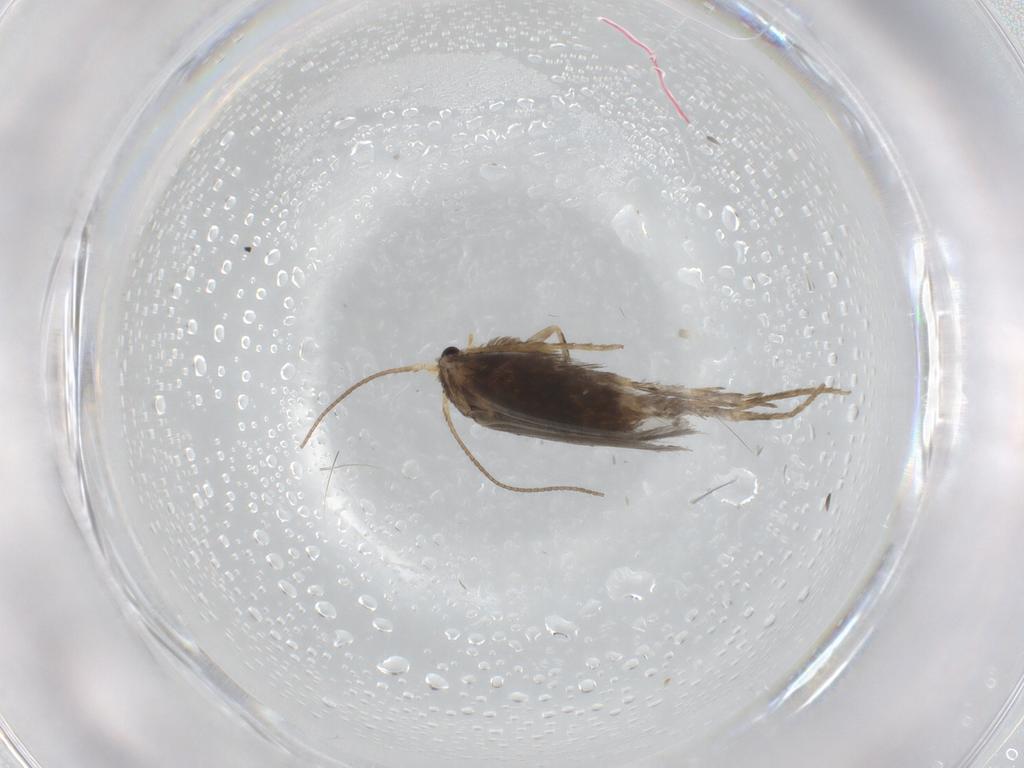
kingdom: Animalia
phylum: Arthropoda
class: Insecta
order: Lepidoptera
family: Nepticulidae
